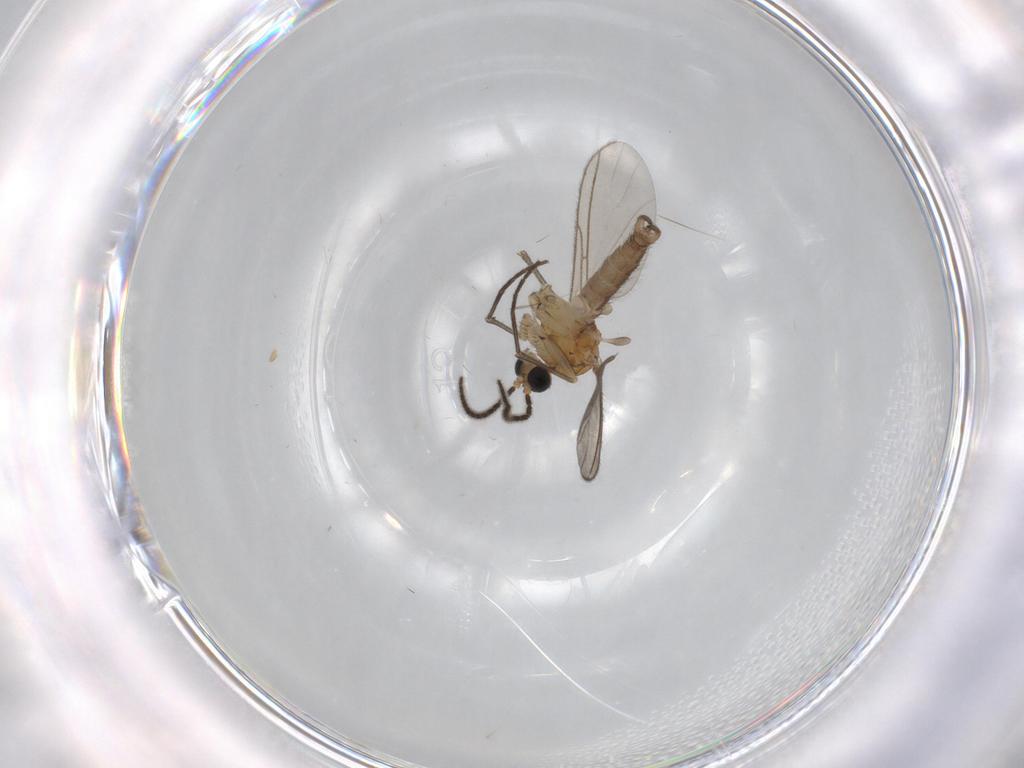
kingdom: Animalia
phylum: Arthropoda
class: Insecta
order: Diptera
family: Sciaridae
